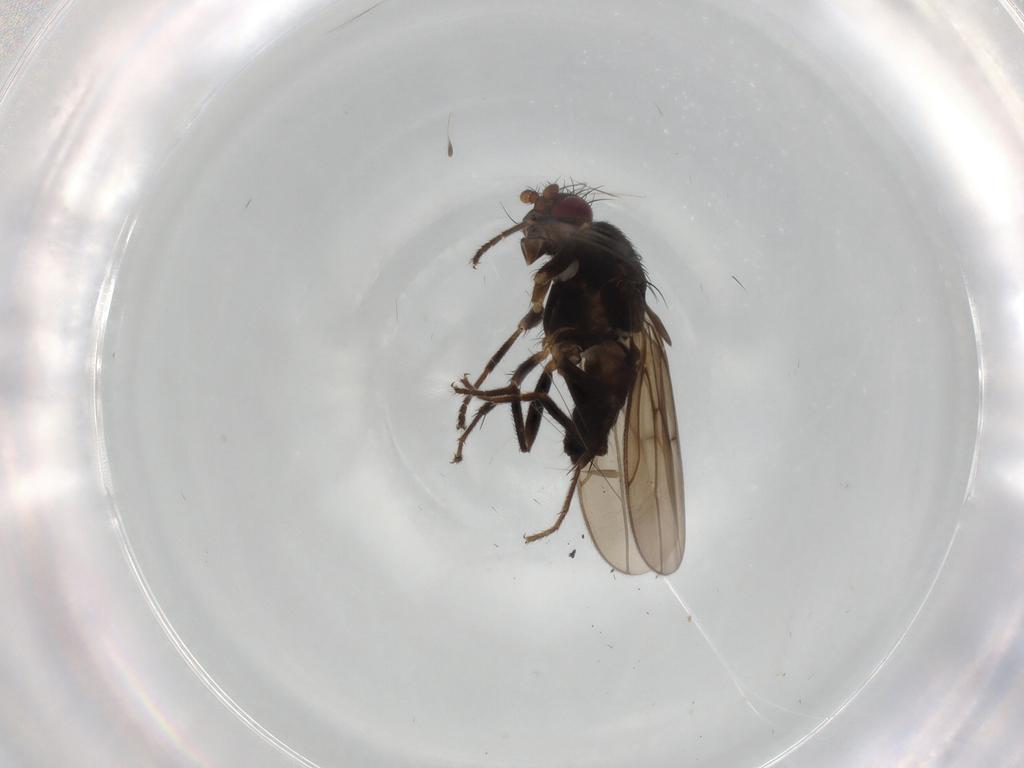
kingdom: Animalia
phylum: Arthropoda
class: Insecta
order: Diptera
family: Sphaeroceridae
